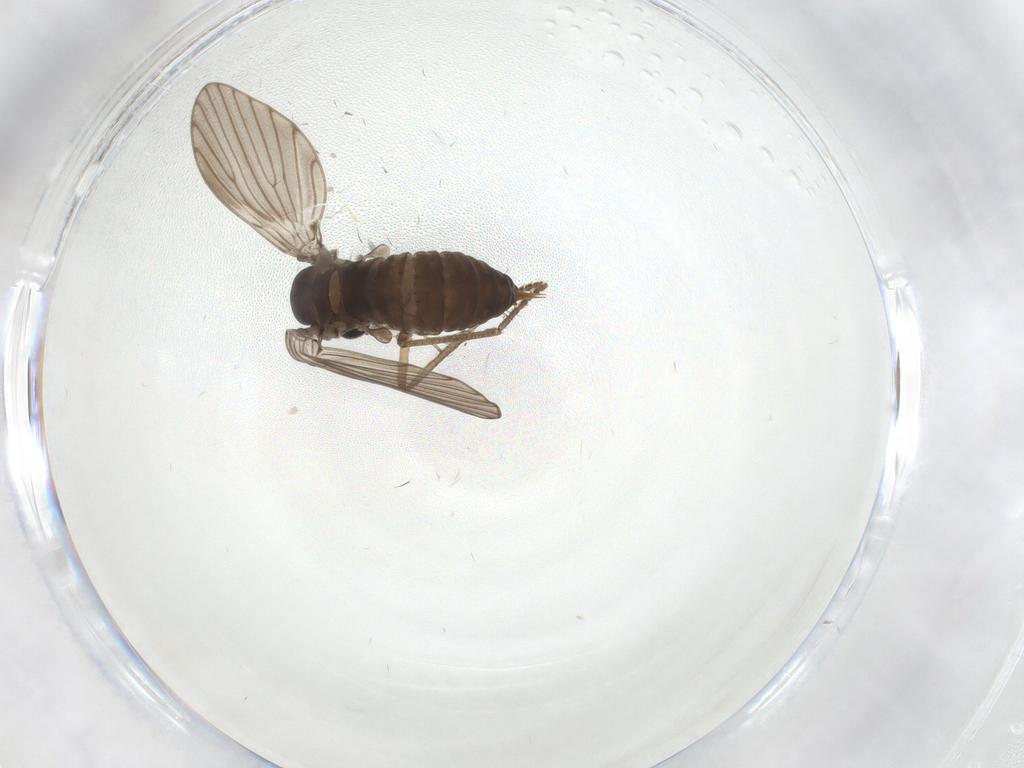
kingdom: Animalia
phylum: Arthropoda
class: Insecta
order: Diptera
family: Psychodidae
